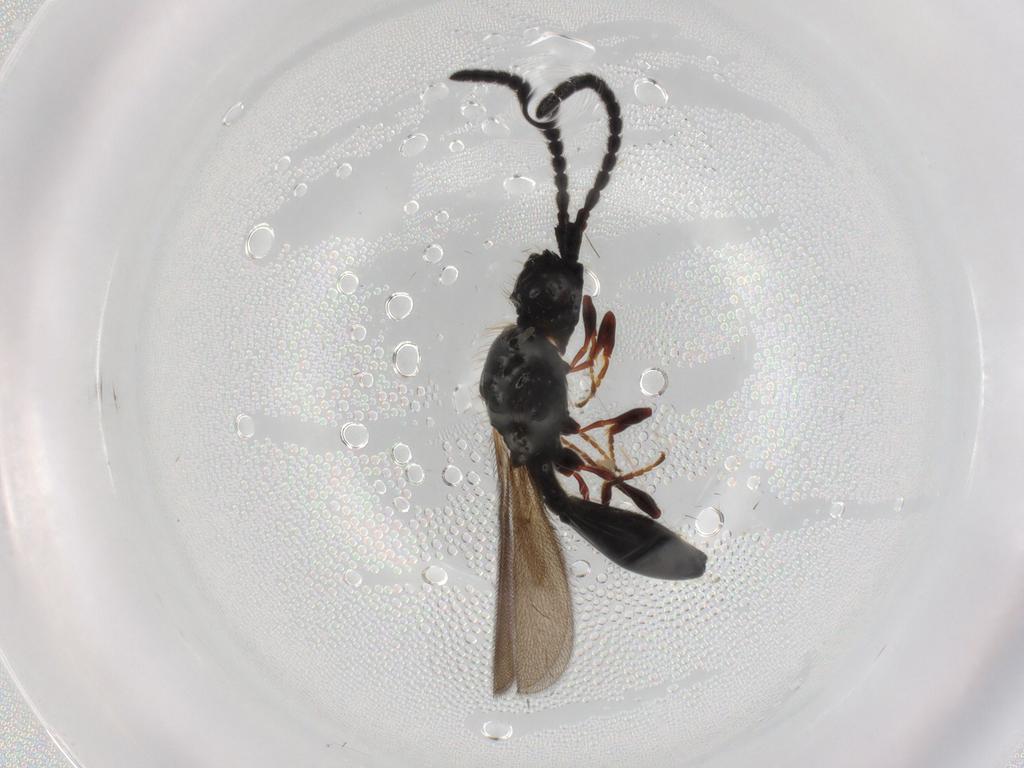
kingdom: Animalia
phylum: Arthropoda
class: Insecta
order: Hymenoptera
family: Diapriidae
